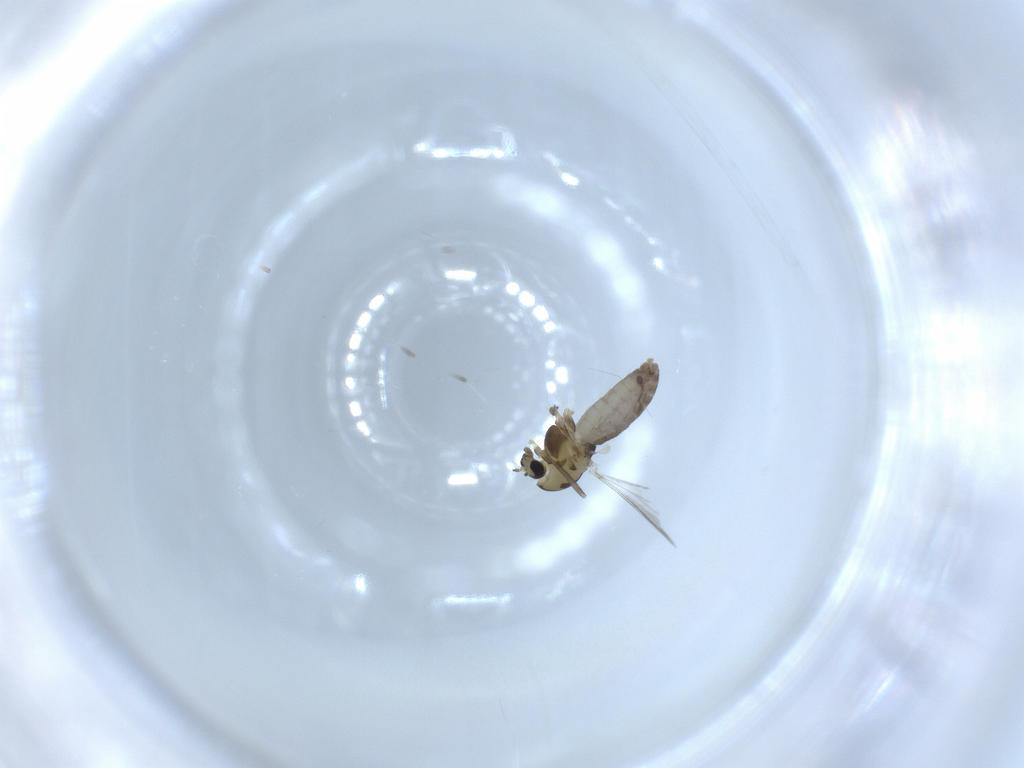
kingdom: Animalia
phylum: Arthropoda
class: Insecta
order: Diptera
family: Chironomidae
